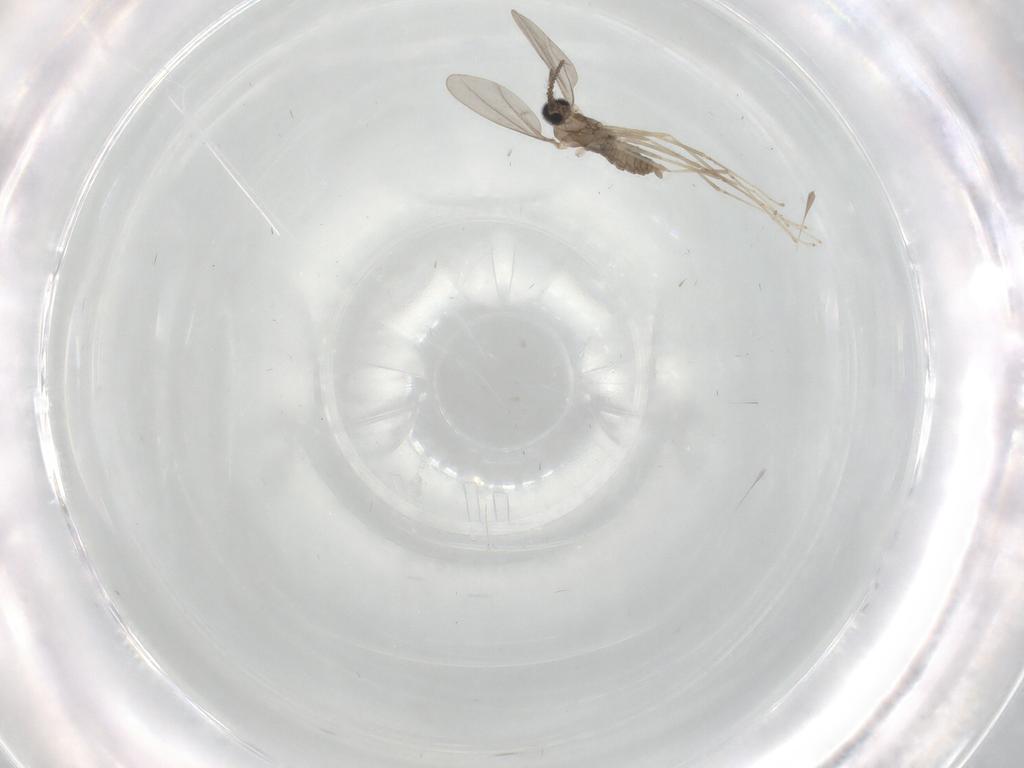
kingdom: Animalia
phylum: Arthropoda
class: Insecta
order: Diptera
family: Cecidomyiidae
